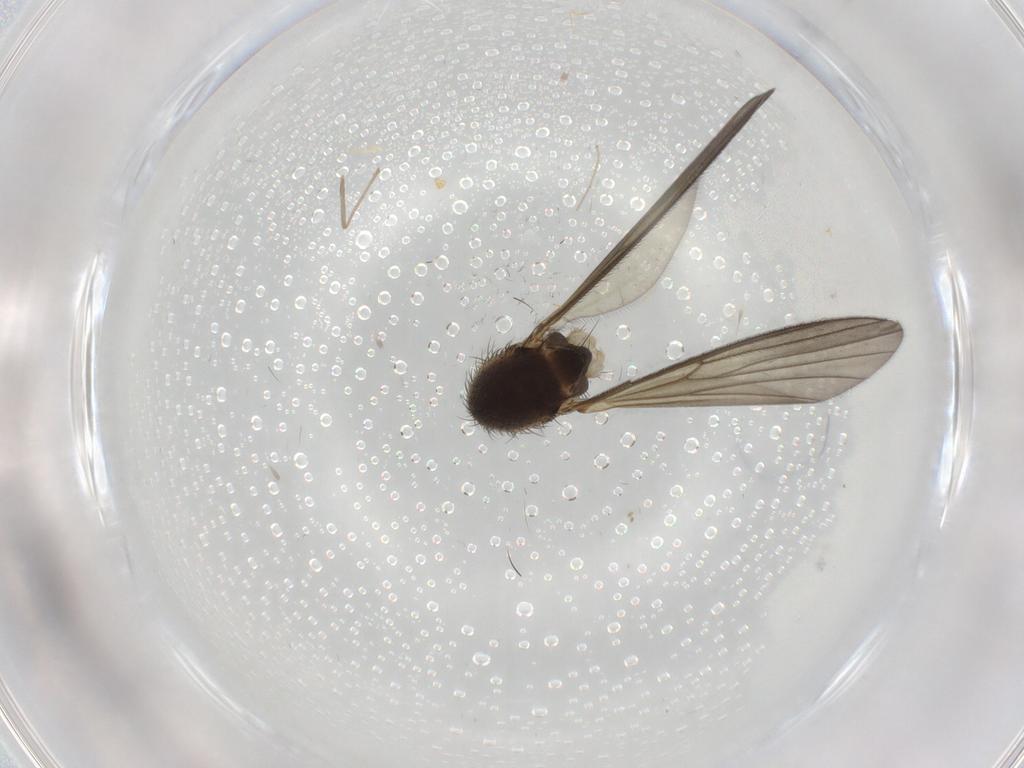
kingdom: Animalia
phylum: Arthropoda
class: Insecta
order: Diptera
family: Mycetophilidae
